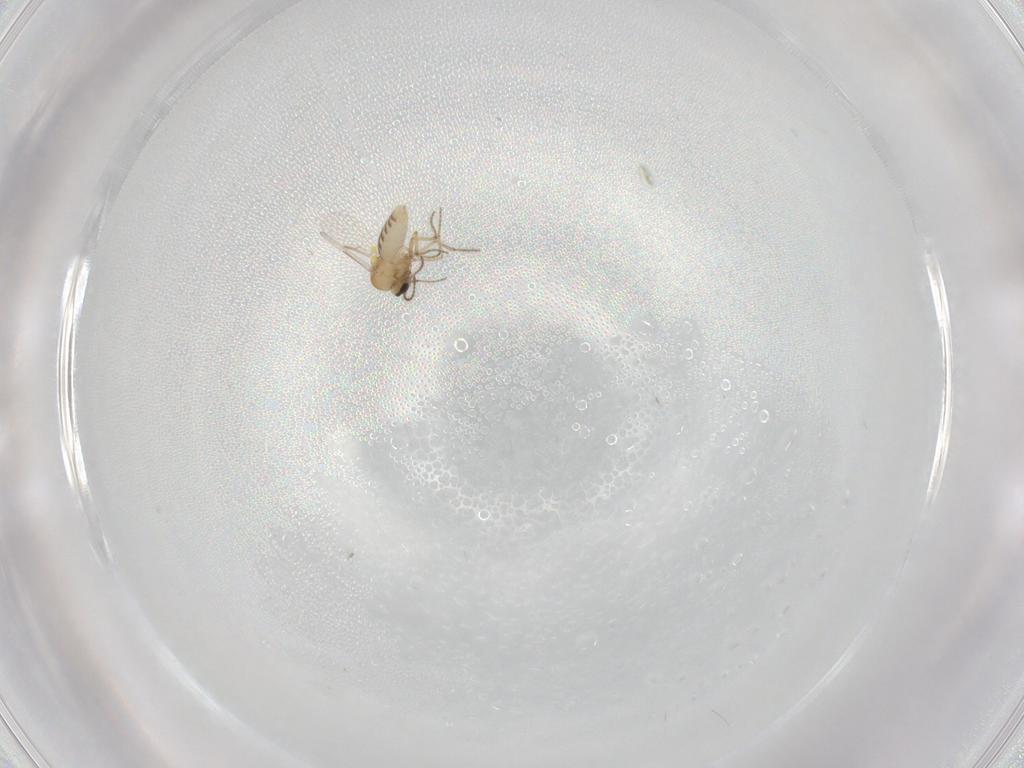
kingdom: Animalia
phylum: Arthropoda
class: Insecta
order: Diptera
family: Ceratopogonidae
